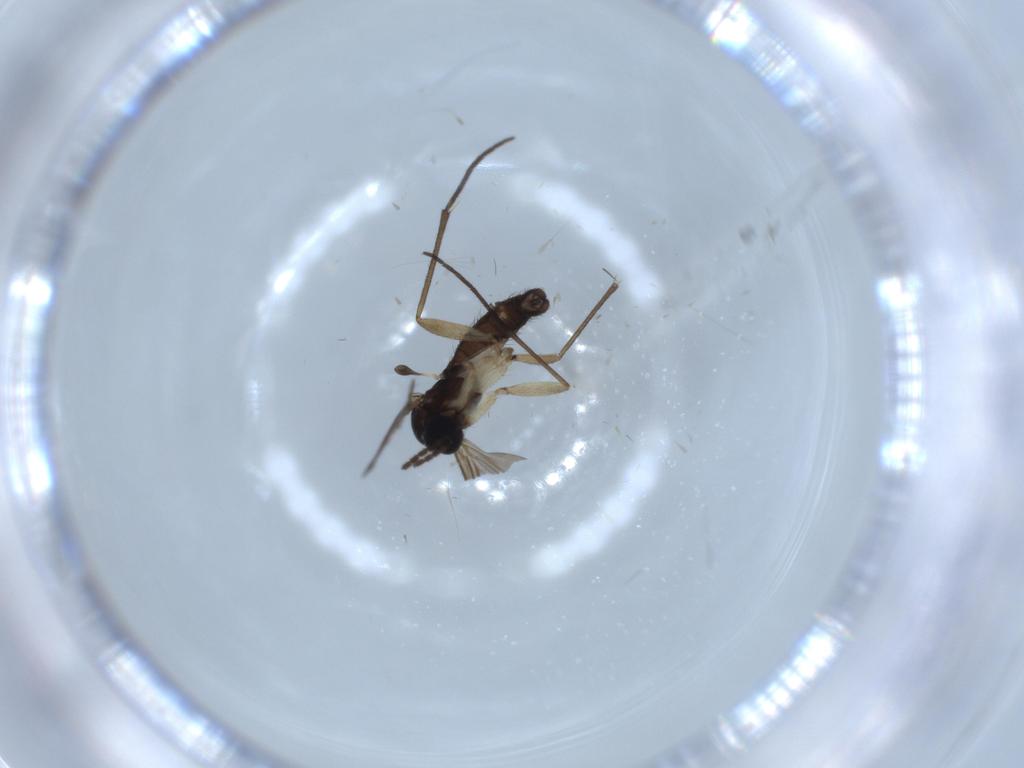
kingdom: Animalia
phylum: Arthropoda
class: Insecta
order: Diptera
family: Sciaridae
